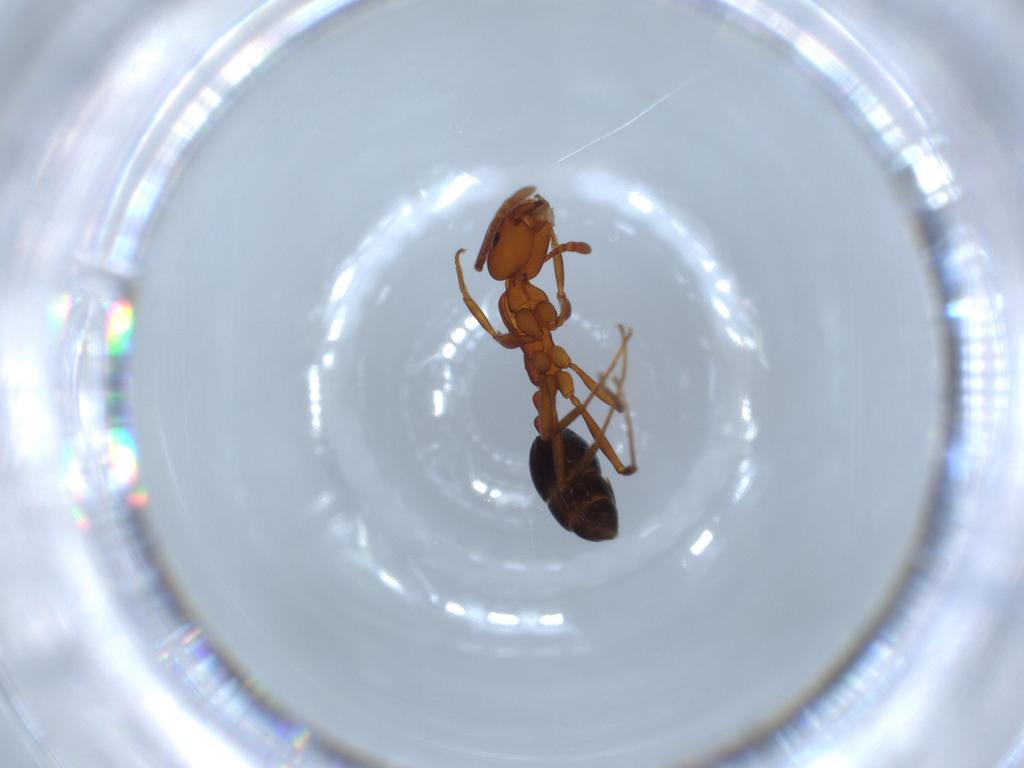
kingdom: Animalia
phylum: Arthropoda
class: Insecta
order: Hymenoptera
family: Formicidae
